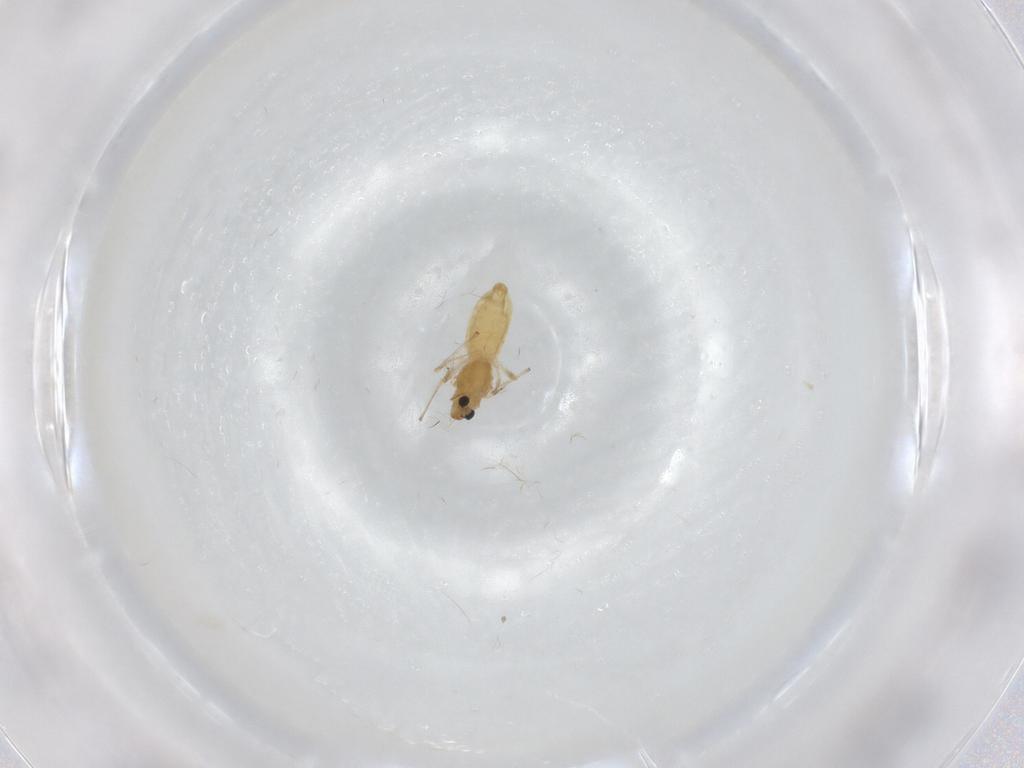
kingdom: Animalia
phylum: Arthropoda
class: Insecta
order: Diptera
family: Chironomidae
